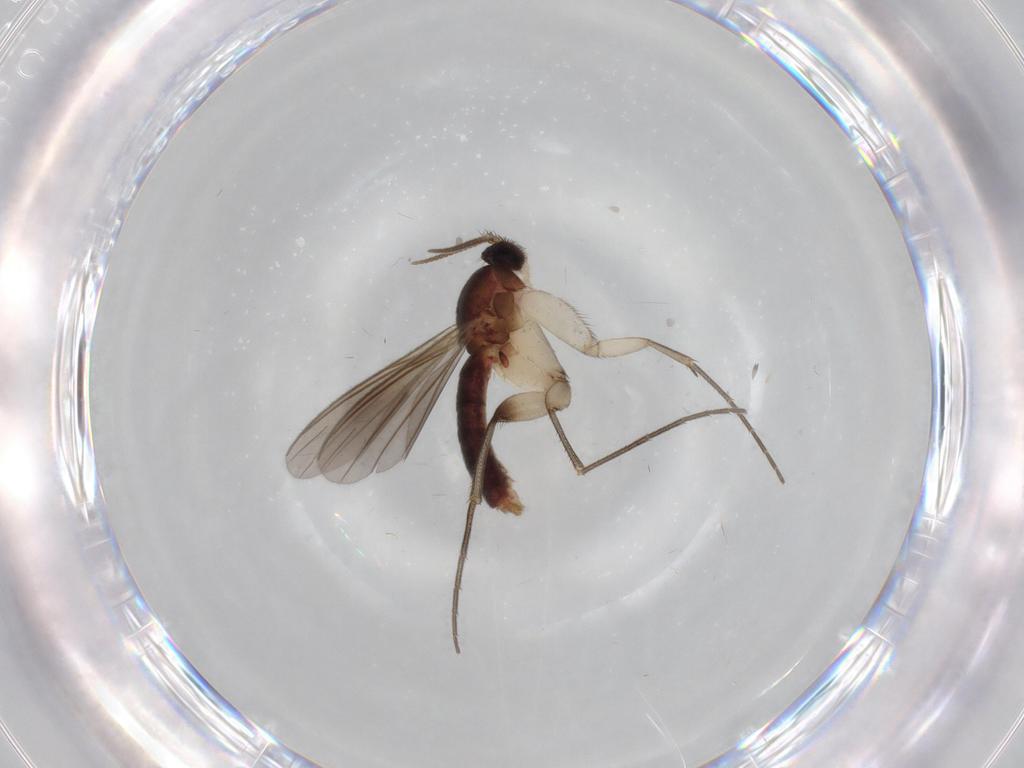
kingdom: Animalia
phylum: Arthropoda
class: Insecta
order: Diptera
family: Mycetophilidae
